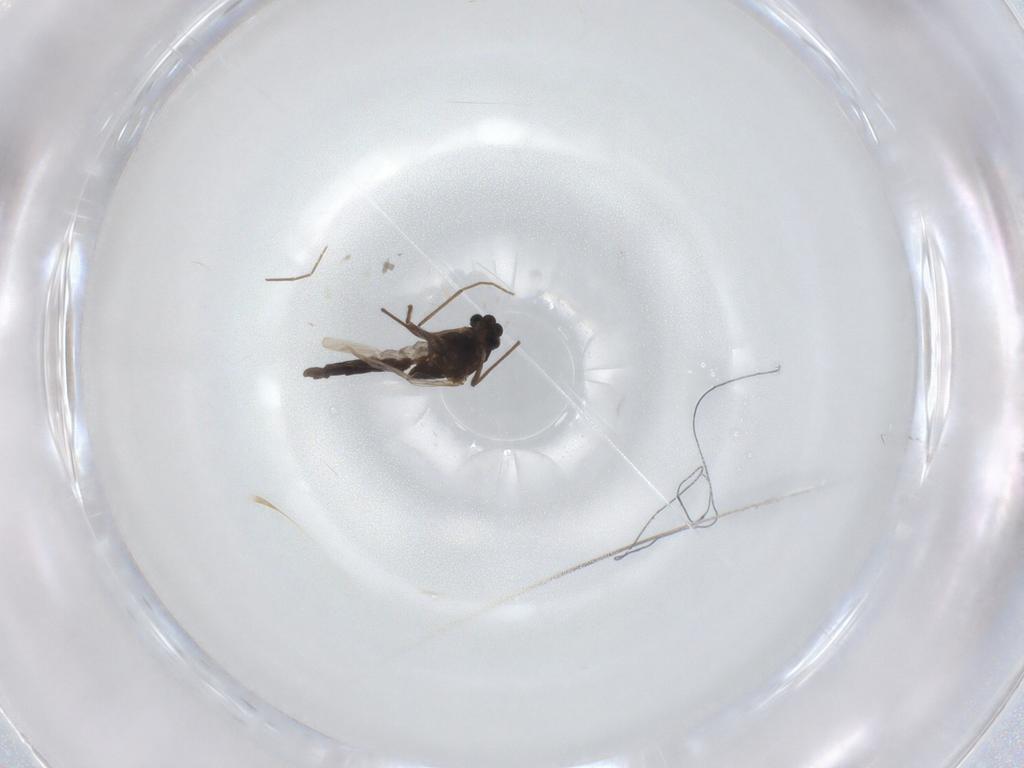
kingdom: Animalia
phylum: Arthropoda
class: Insecta
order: Diptera
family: Chironomidae
